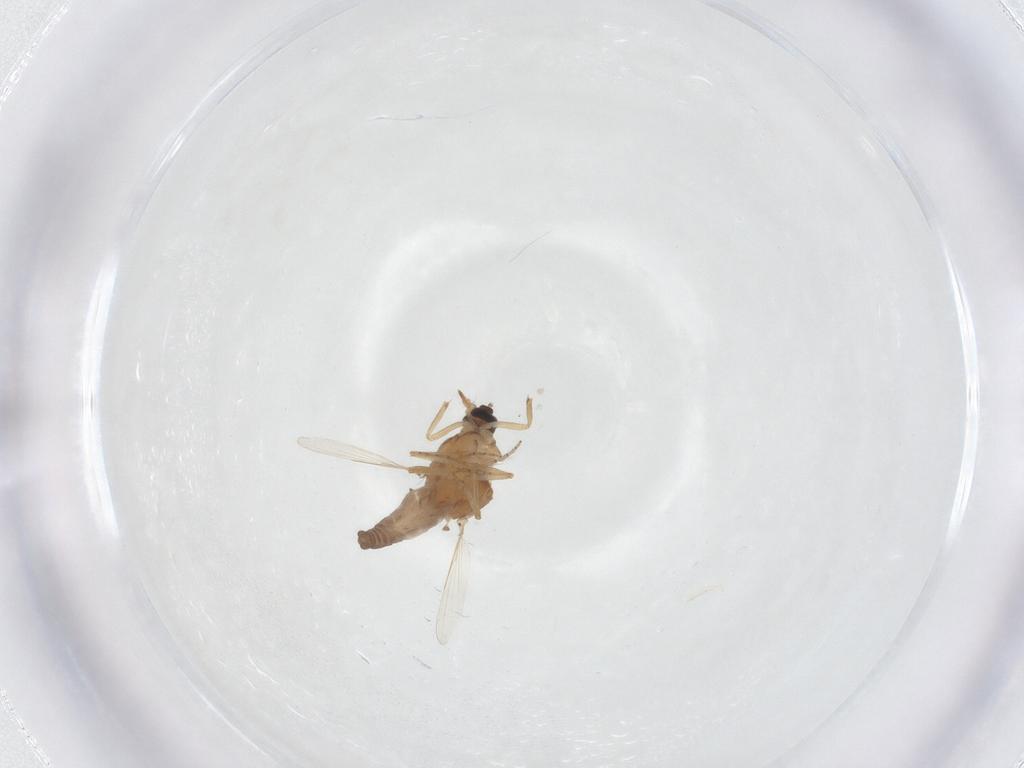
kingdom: Animalia
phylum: Arthropoda
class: Insecta
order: Diptera
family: Ceratopogonidae
